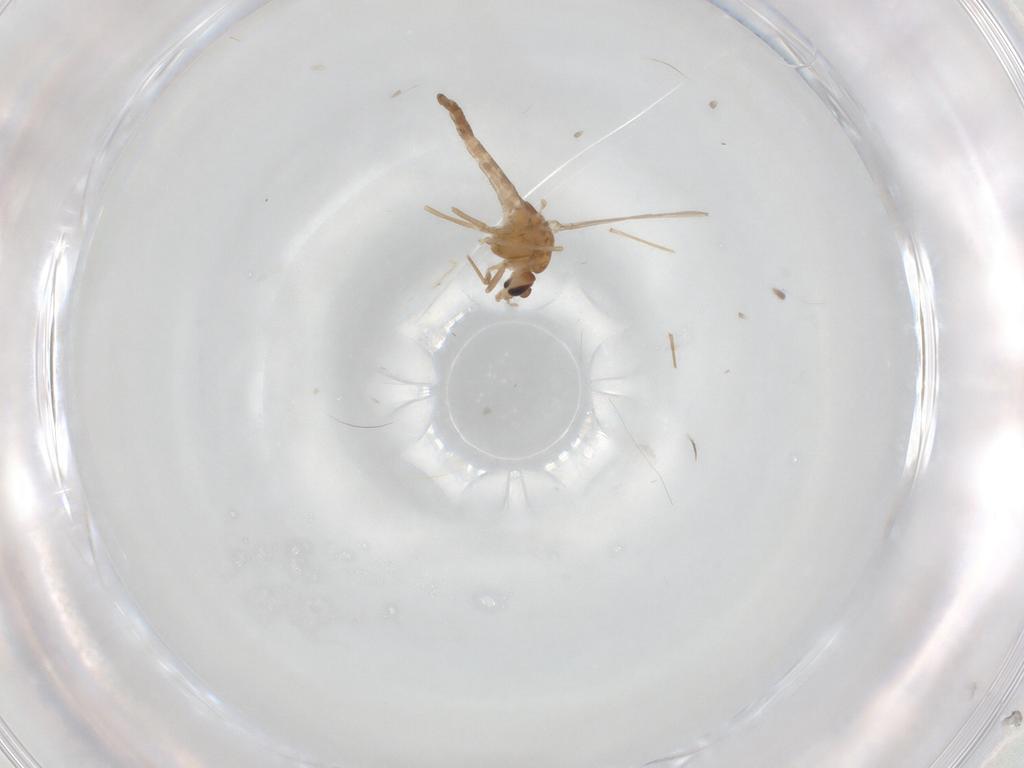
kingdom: Animalia
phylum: Arthropoda
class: Insecta
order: Diptera
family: Chironomidae
